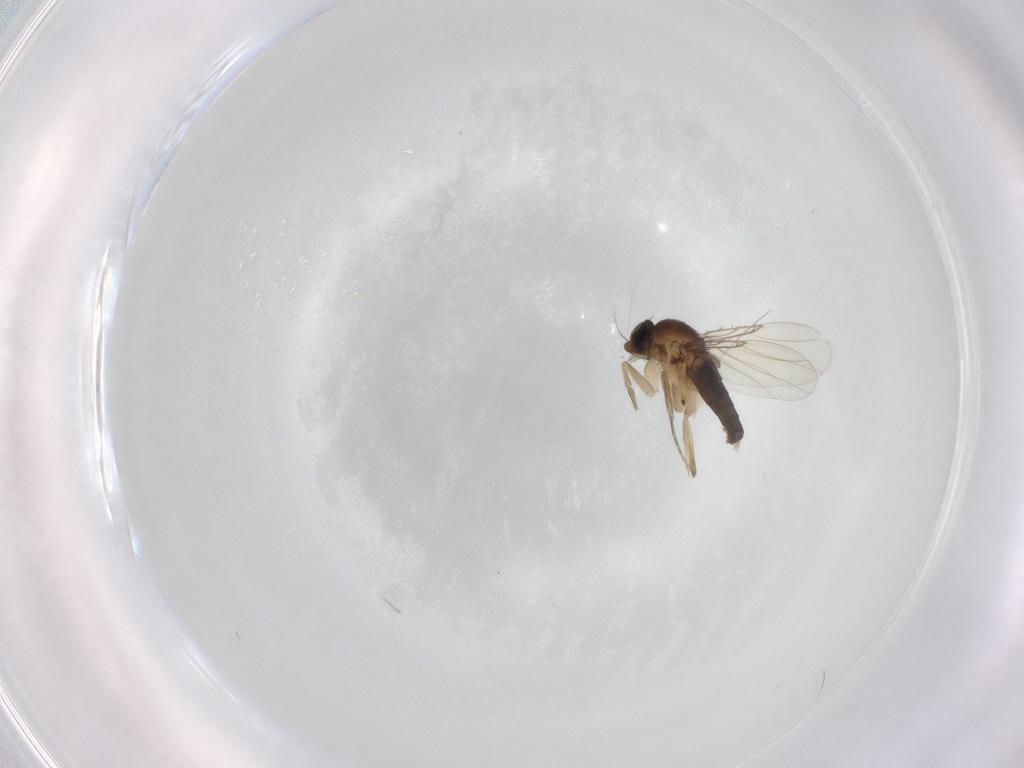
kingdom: Animalia
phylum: Arthropoda
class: Insecta
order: Diptera
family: Phoridae
